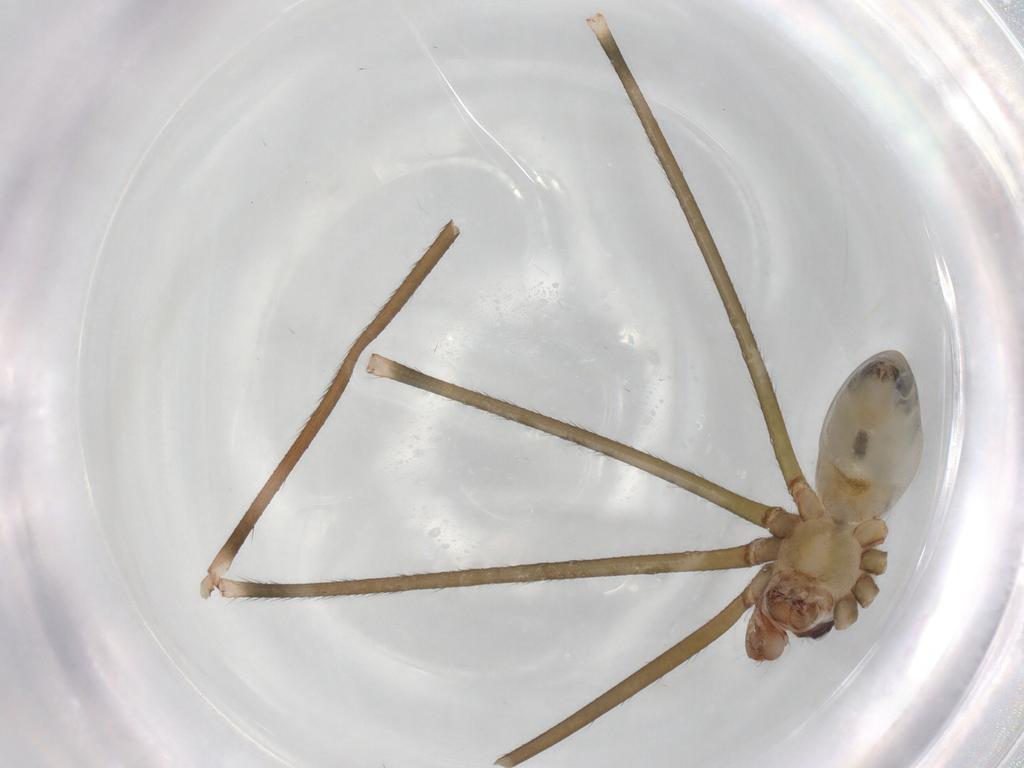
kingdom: Animalia
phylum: Arthropoda
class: Arachnida
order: Araneae
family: Pholcidae
